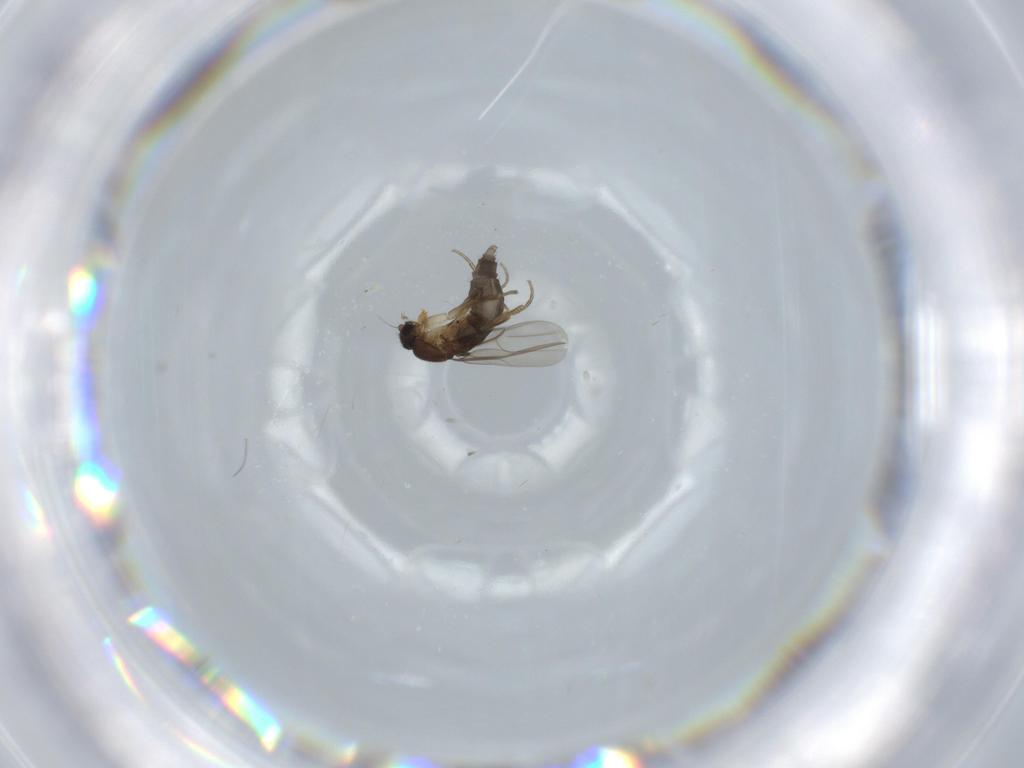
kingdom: Animalia
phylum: Arthropoda
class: Insecta
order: Diptera
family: Phoridae
